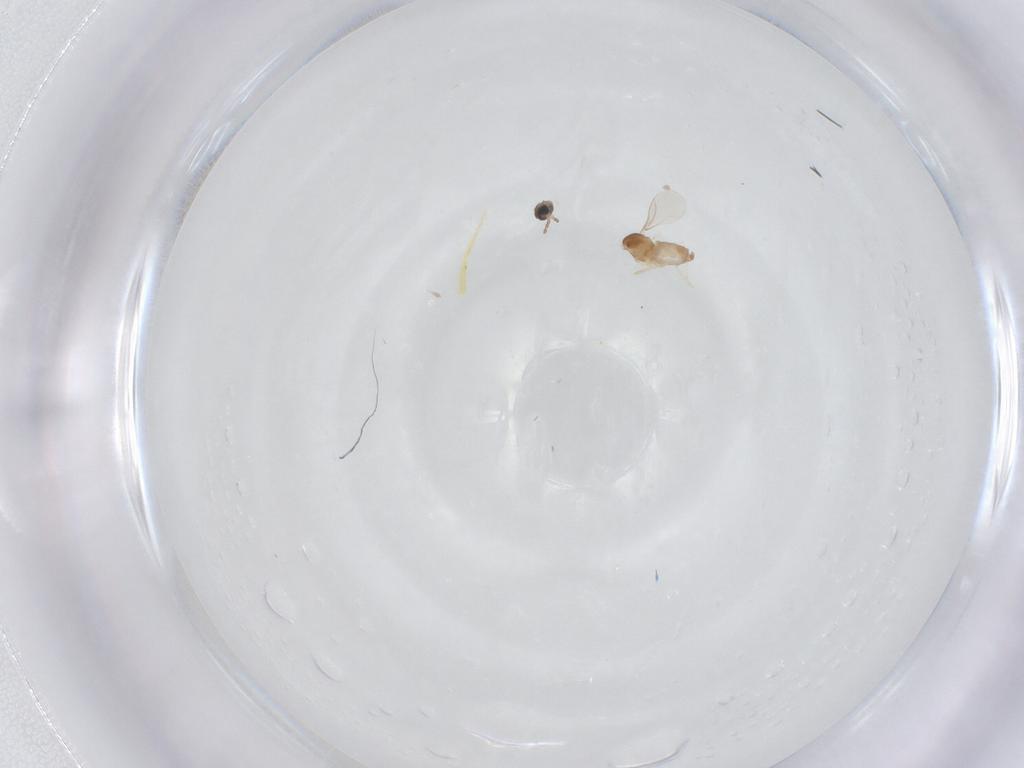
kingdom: Animalia
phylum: Arthropoda
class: Insecta
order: Diptera
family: Cecidomyiidae
